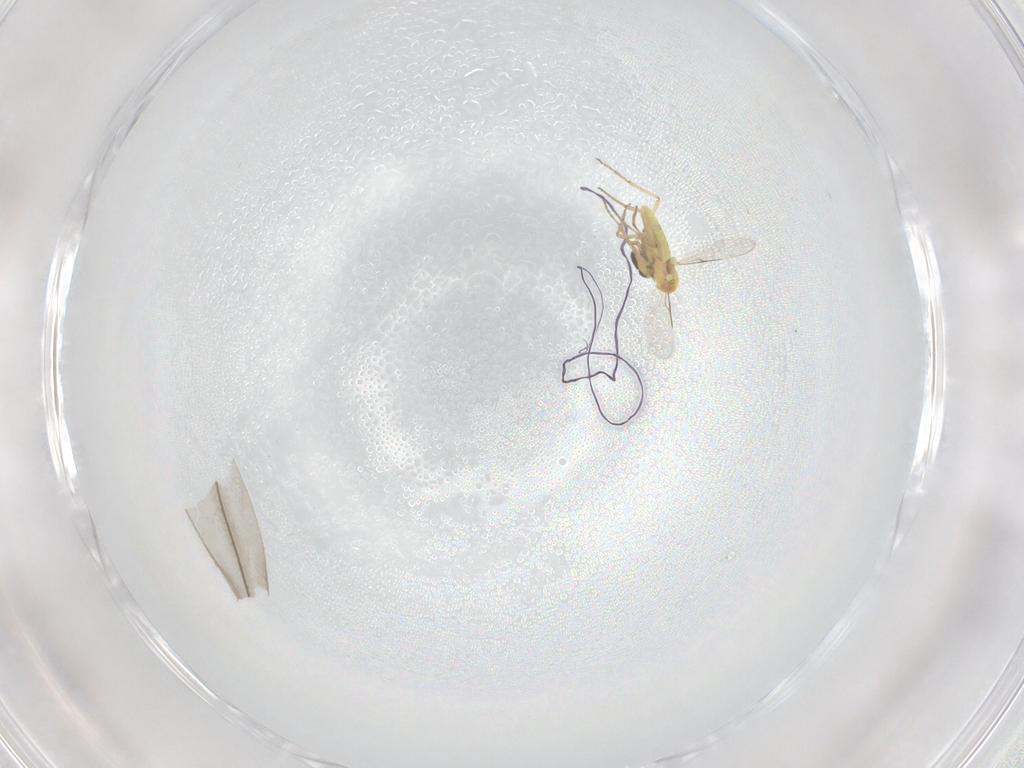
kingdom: Animalia
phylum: Arthropoda
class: Insecta
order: Diptera
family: Ceratopogonidae
